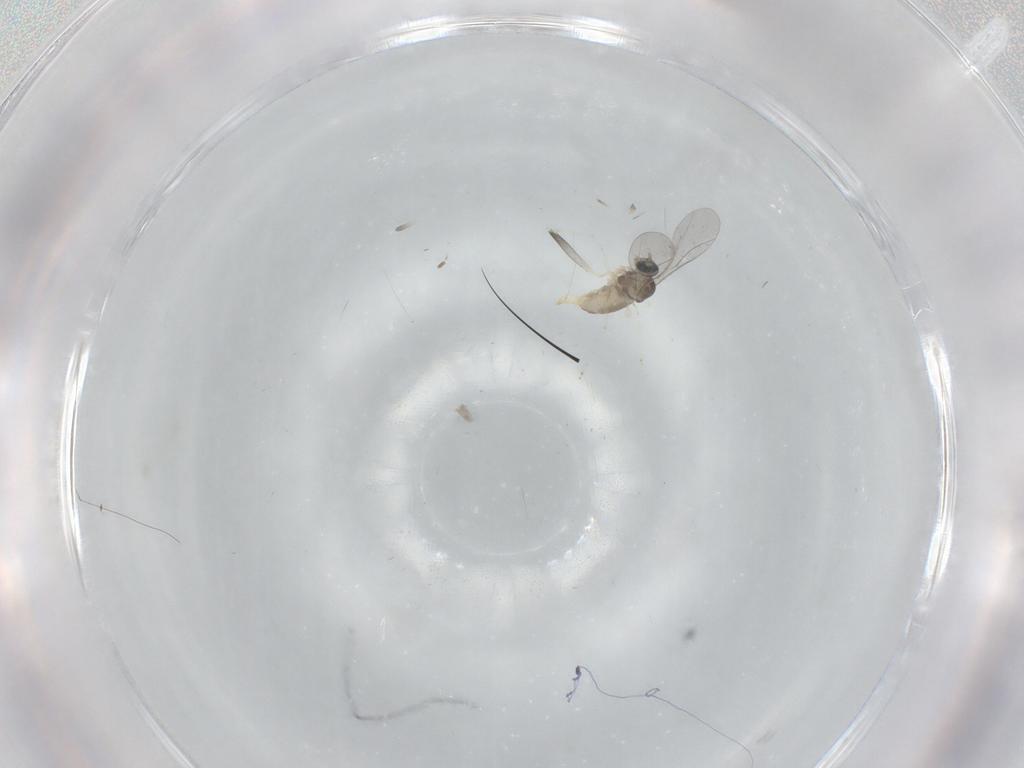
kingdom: Animalia
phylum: Arthropoda
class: Insecta
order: Diptera
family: Cecidomyiidae
